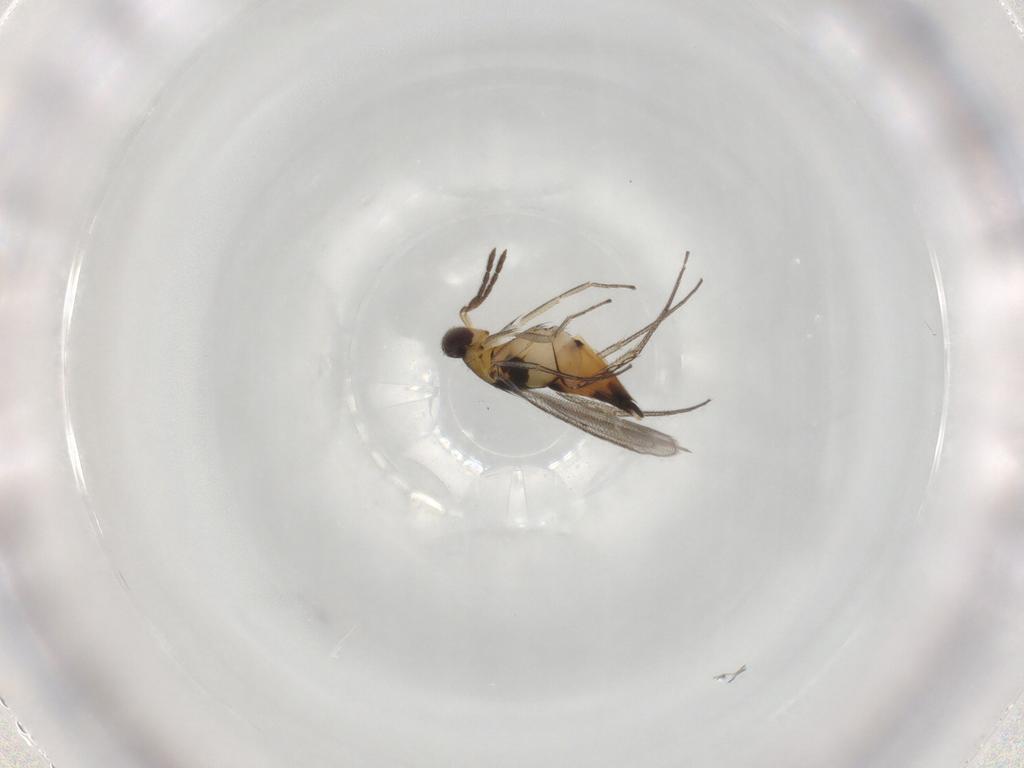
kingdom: Animalia
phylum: Arthropoda
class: Insecta
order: Hymenoptera
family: Eulophidae
